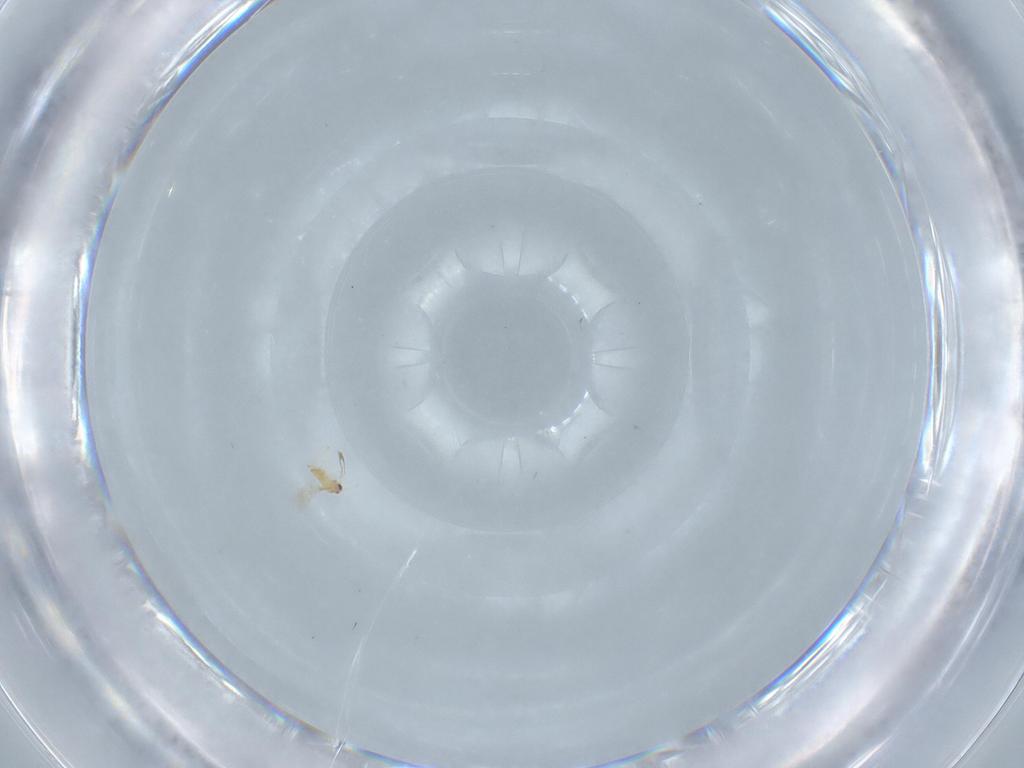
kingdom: Animalia
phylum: Arthropoda
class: Insecta
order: Hymenoptera
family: Mymaridae
